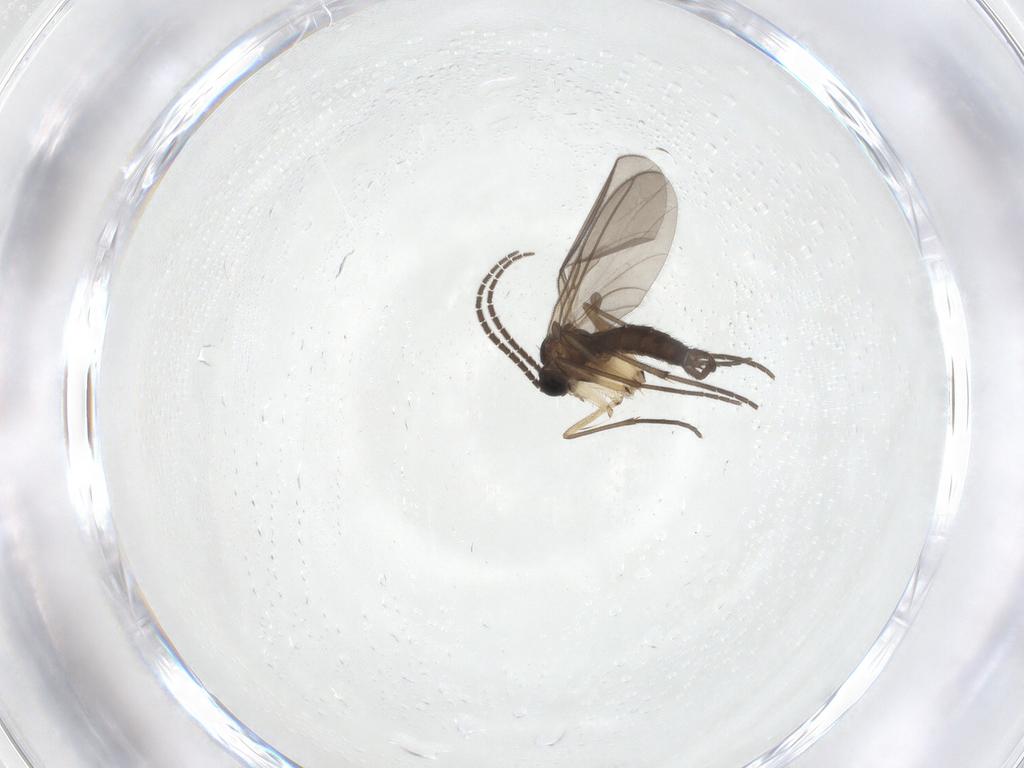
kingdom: Animalia
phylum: Arthropoda
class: Insecta
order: Diptera
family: Sciaridae
